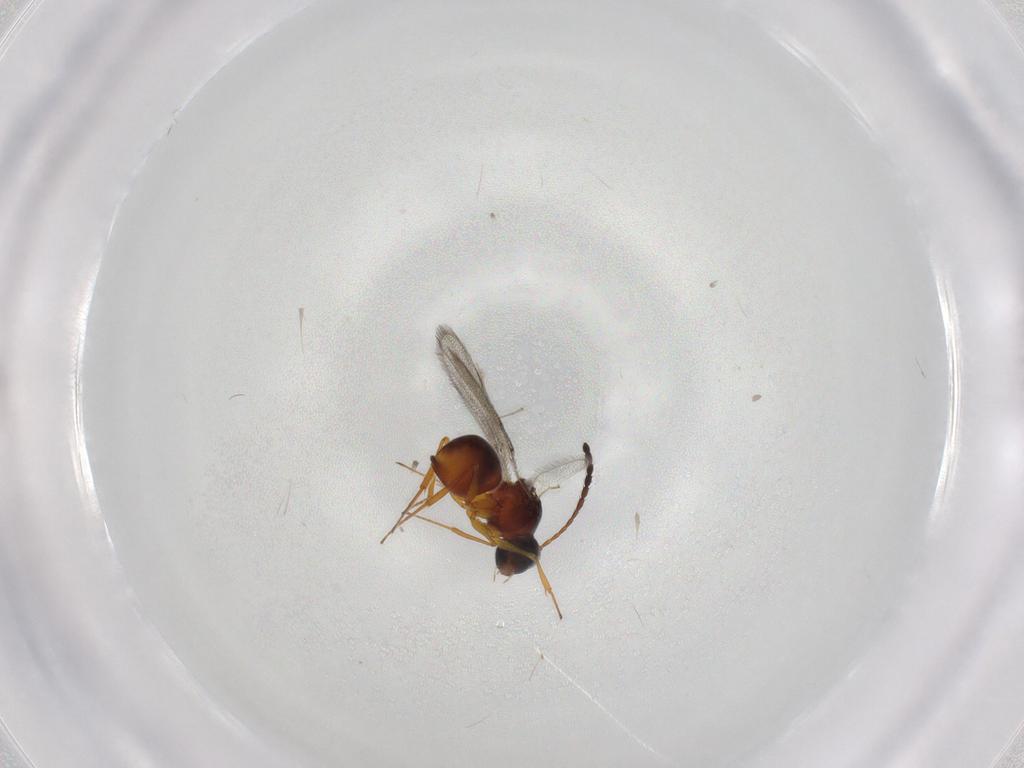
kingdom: Animalia
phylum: Arthropoda
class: Insecta
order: Hymenoptera
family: Figitidae
